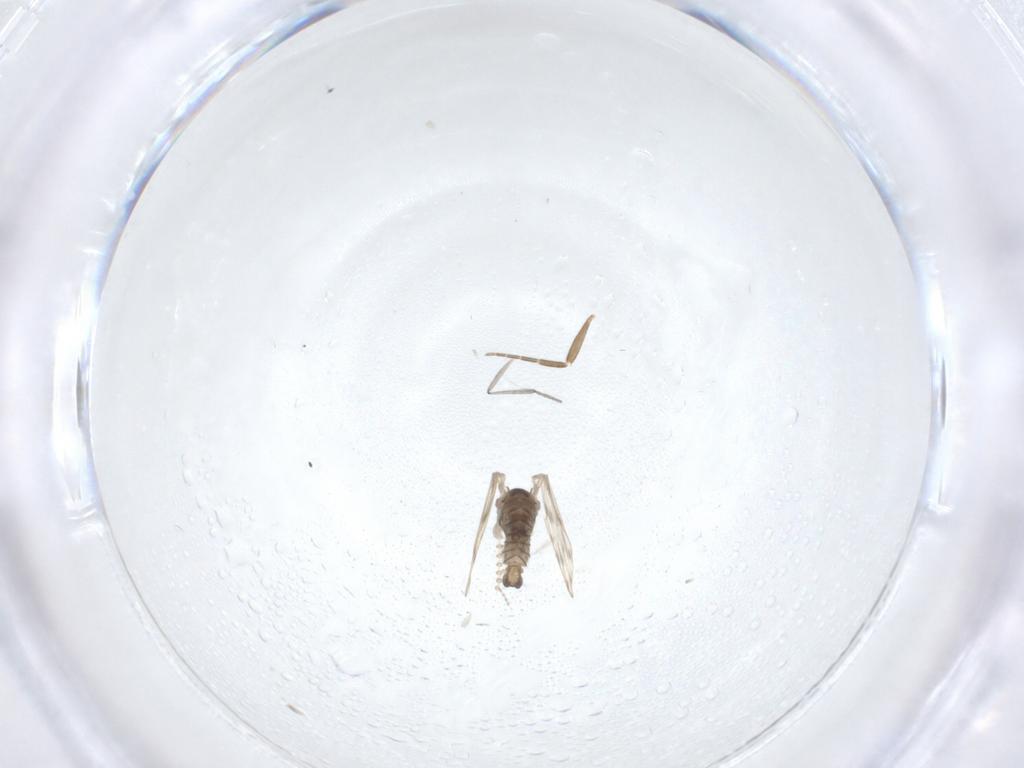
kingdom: Animalia
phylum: Arthropoda
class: Insecta
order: Diptera
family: Psychodidae
